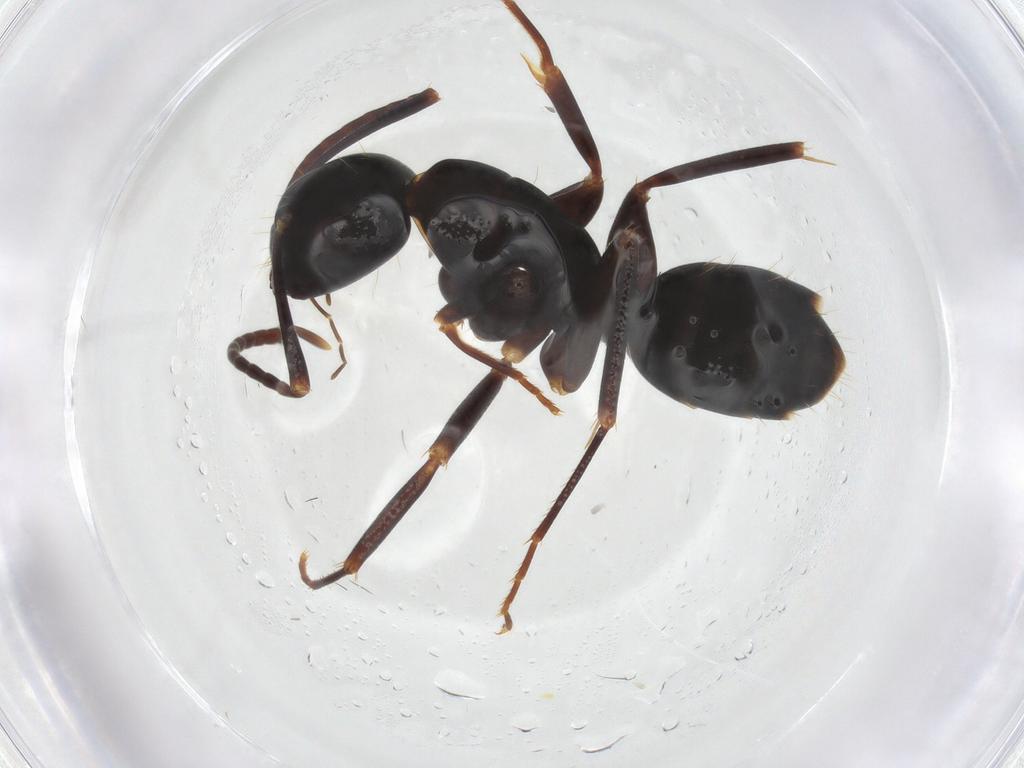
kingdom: Animalia
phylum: Arthropoda
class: Insecta
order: Hymenoptera
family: Formicidae
